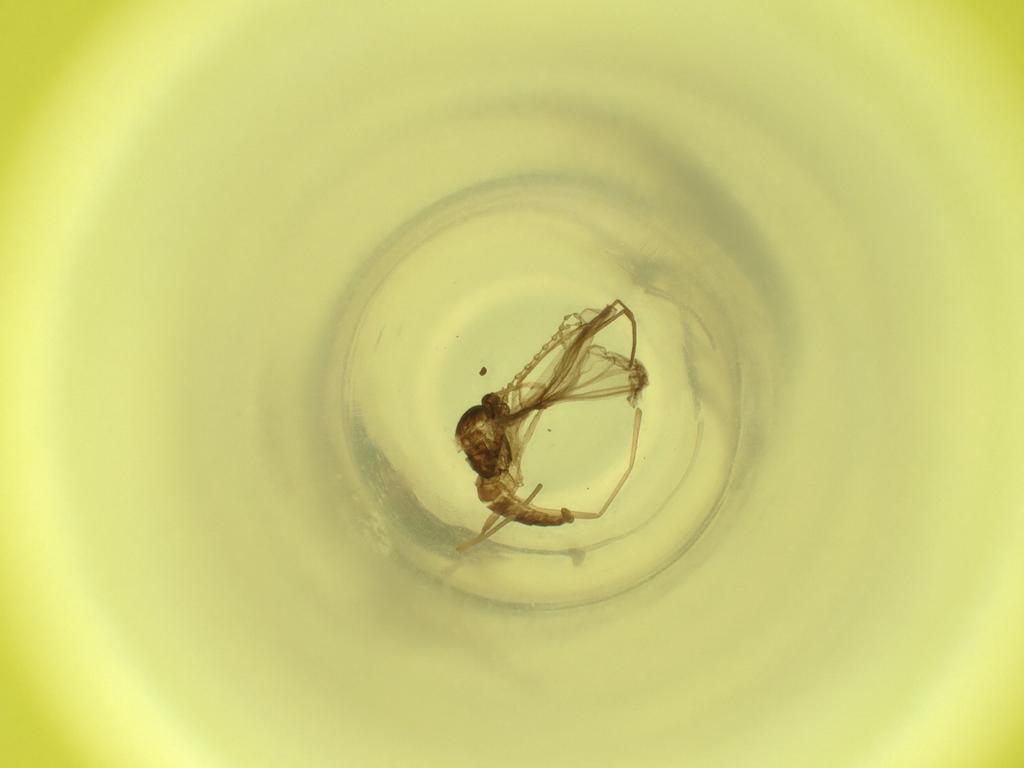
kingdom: Animalia
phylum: Arthropoda
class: Insecta
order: Diptera
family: Cecidomyiidae
